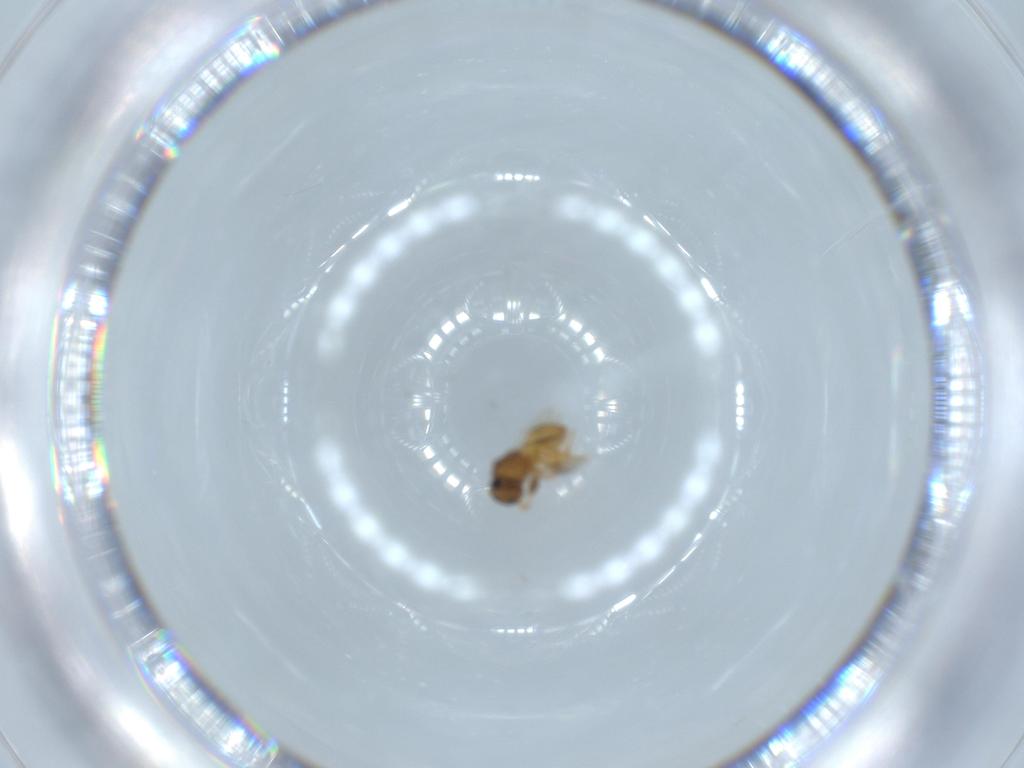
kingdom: Animalia
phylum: Arthropoda
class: Insecta
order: Hymenoptera
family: Scelionidae
